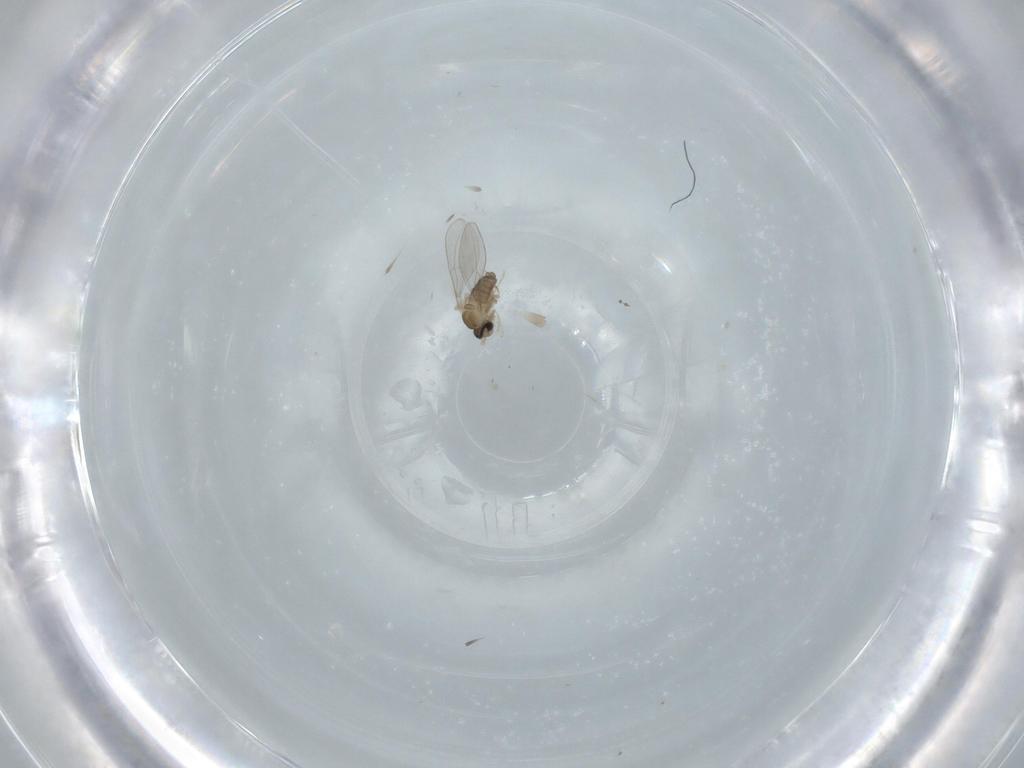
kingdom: Animalia
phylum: Arthropoda
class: Insecta
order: Diptera
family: Cecidomyiidae
